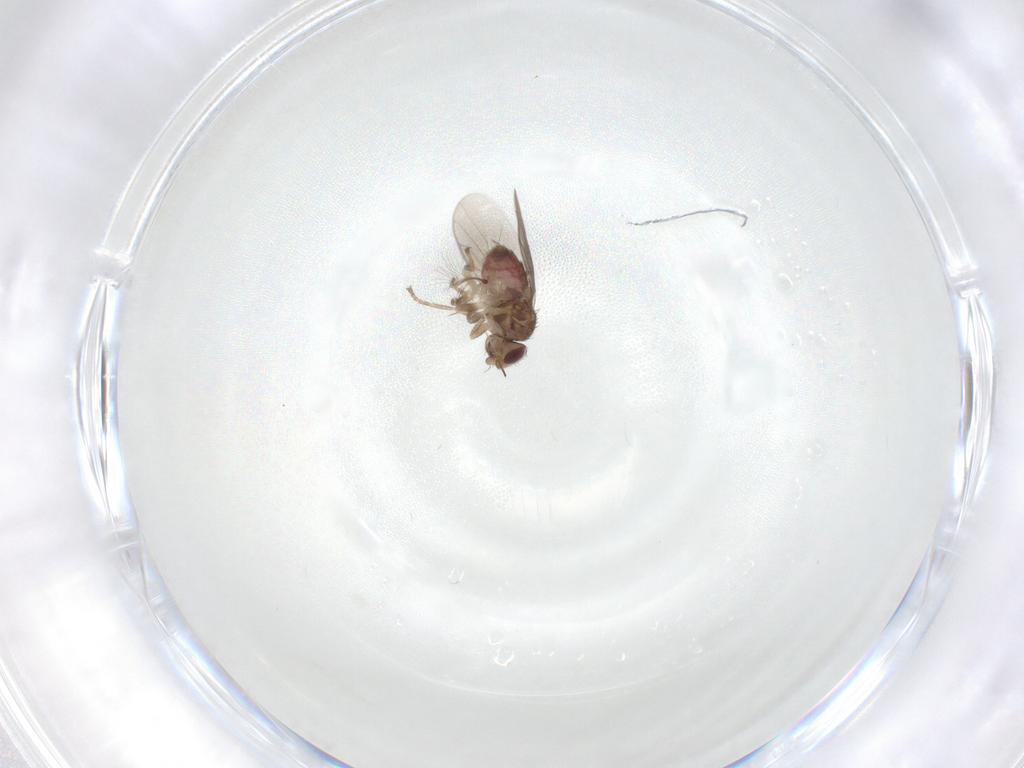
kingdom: Animalia
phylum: Arthropoda
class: Insecta
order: Diptera
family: Chloropidae
